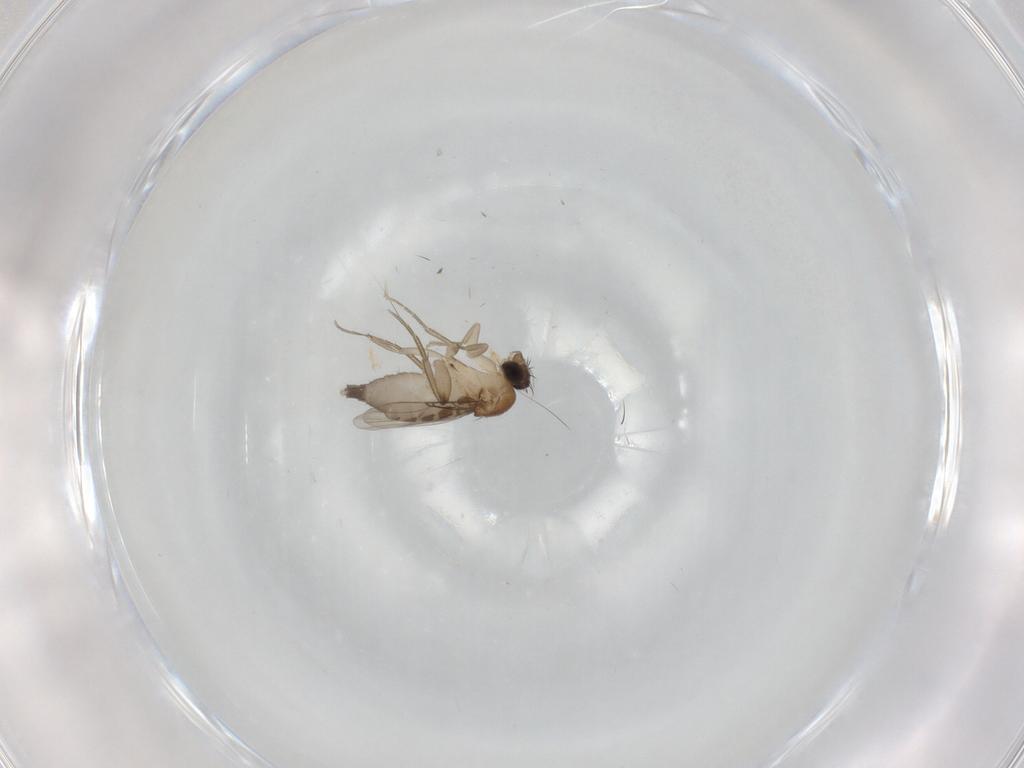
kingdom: Animalia
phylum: Arthropoda
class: Insecta
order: Diptera
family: Phoridae
